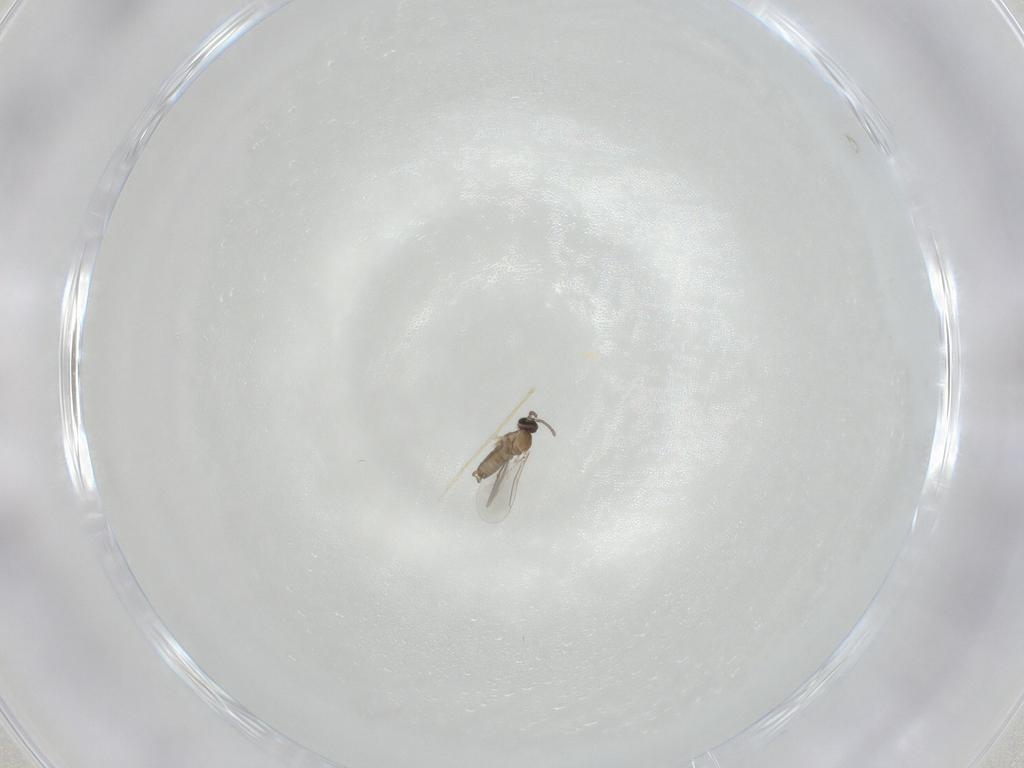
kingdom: Animalia
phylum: Arthropoda
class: Insecta
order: Diptera
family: Cecidomyiidae
